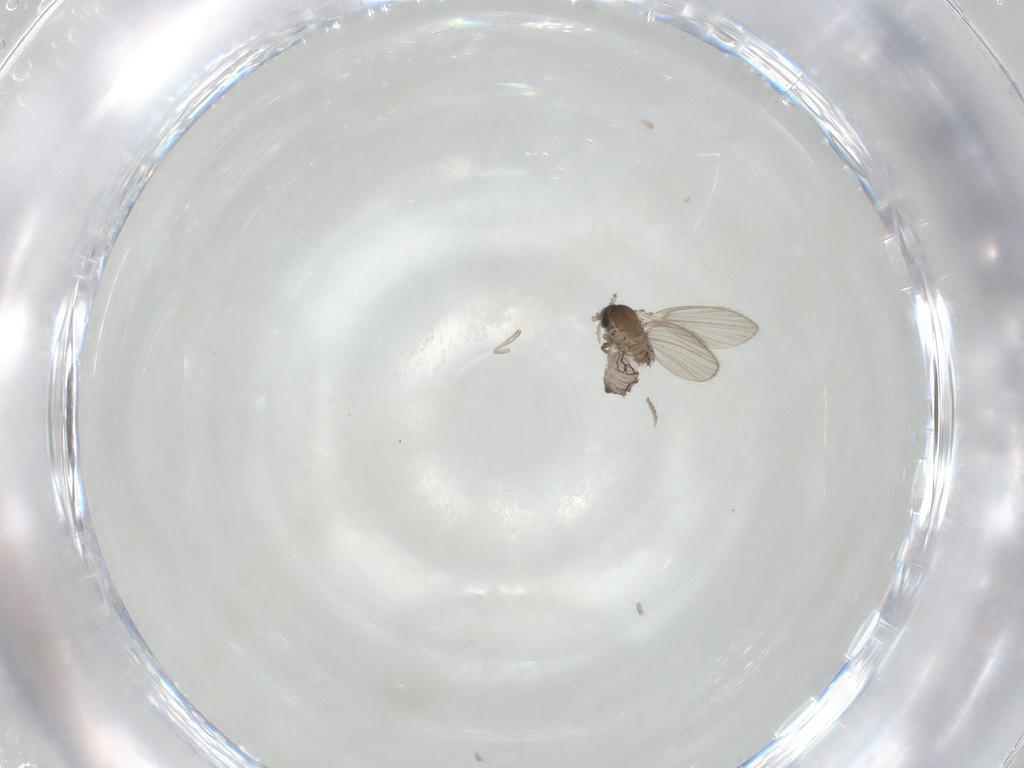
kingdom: Animalia
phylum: Arthropoda
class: Insecta
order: Diptera
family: Psychodidae
